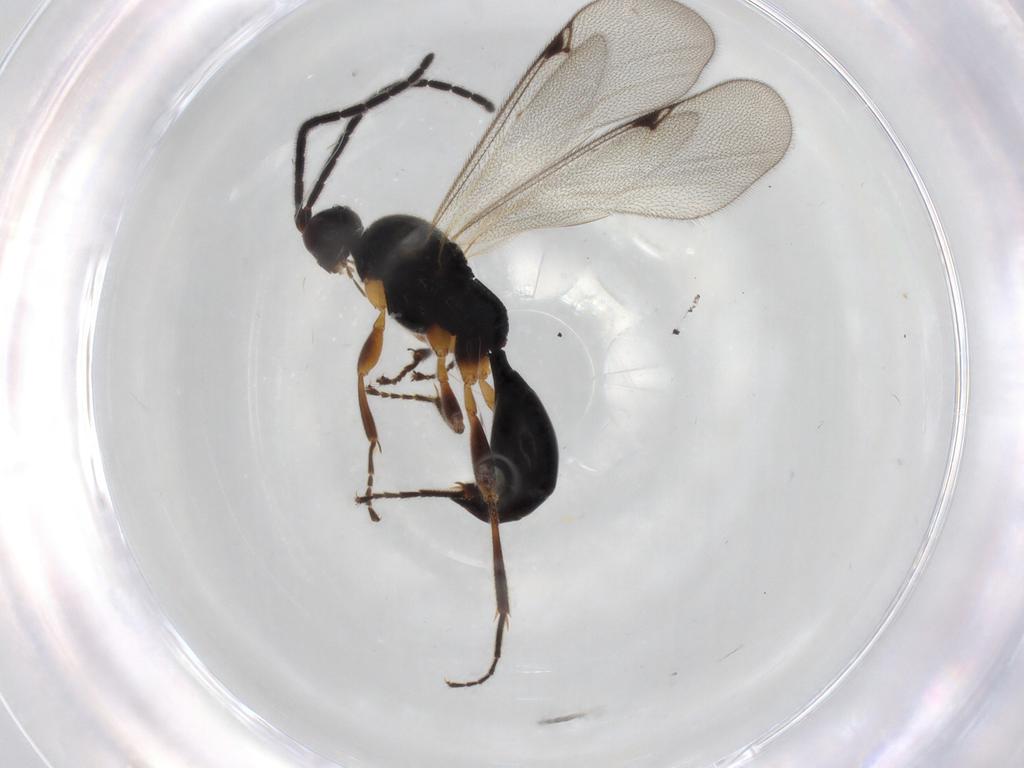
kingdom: Animalia
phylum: Arthropoda
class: Insecta
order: Hymenoptera
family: Proctotrupidae
